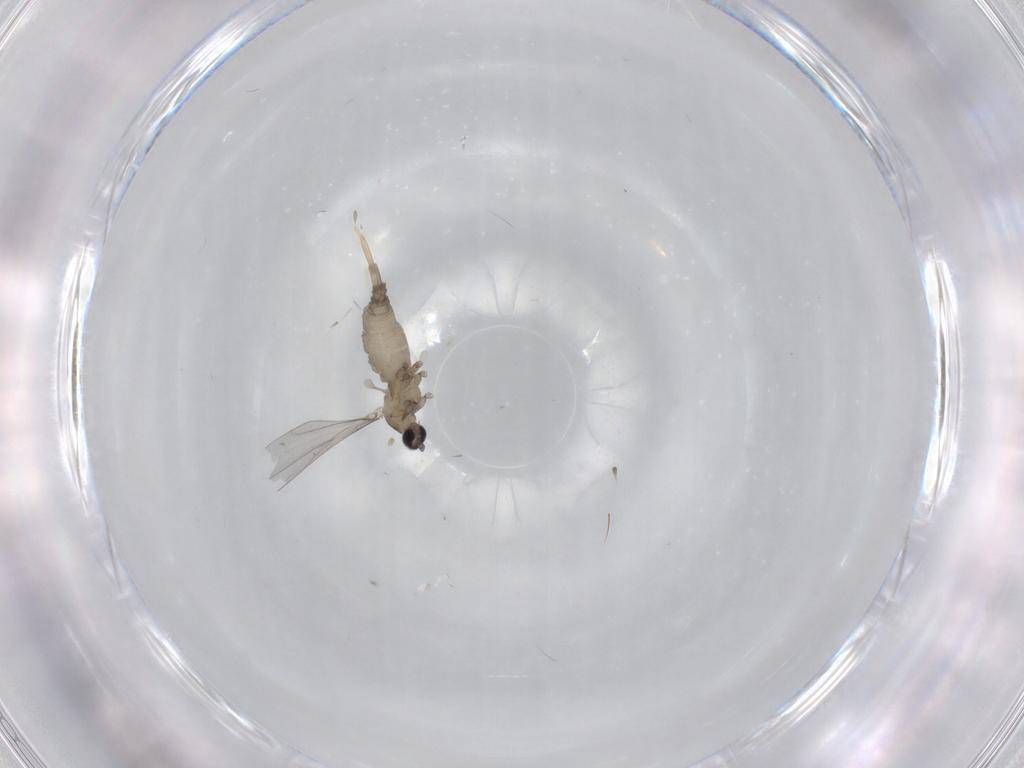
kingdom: Animalia
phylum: Arthropoda
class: Insecta
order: Diptera
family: Cecidomyiidae
